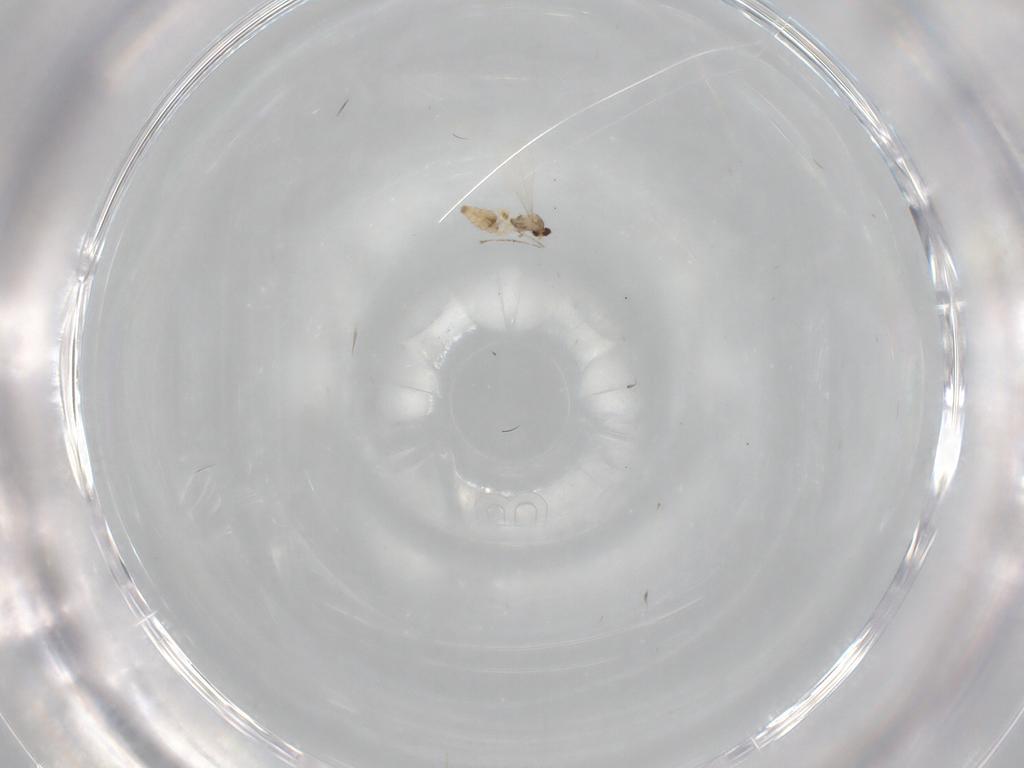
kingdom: Animalia
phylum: Arthropoda
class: Insecta
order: Diptera
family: Cecidomyiidae
